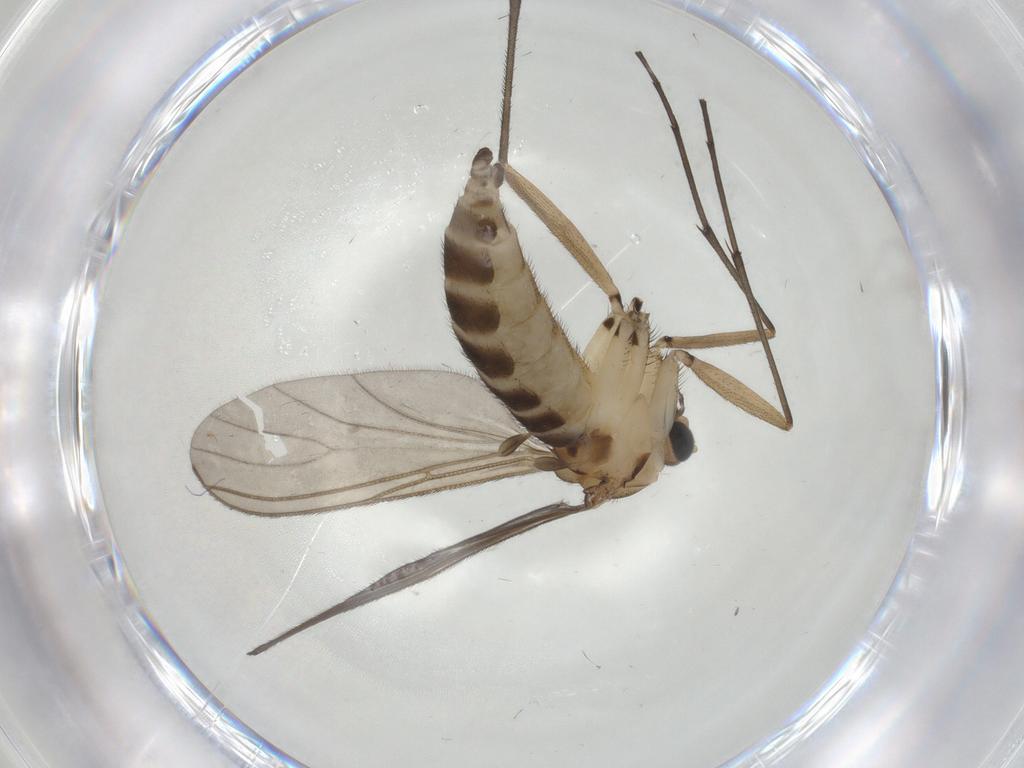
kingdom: Animalia
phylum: Arthropoda
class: Insecta
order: Diptera
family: Sciaridae
